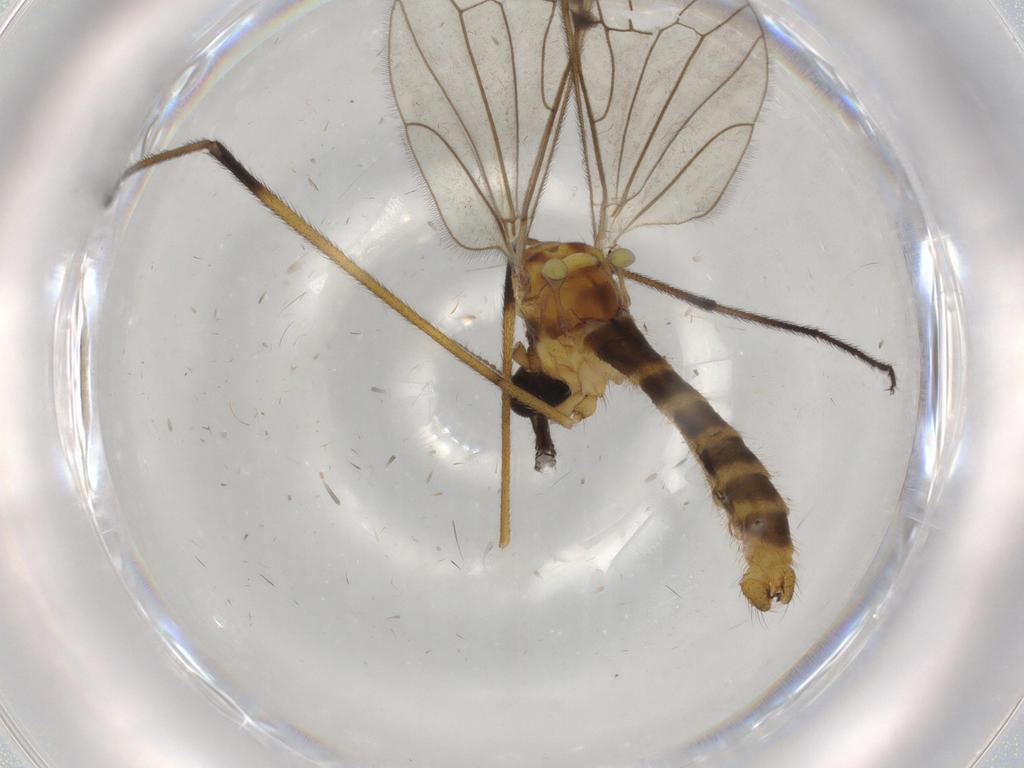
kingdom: Animalia
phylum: Arthropoda
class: Insecta
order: Diptera
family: Limoniidae
